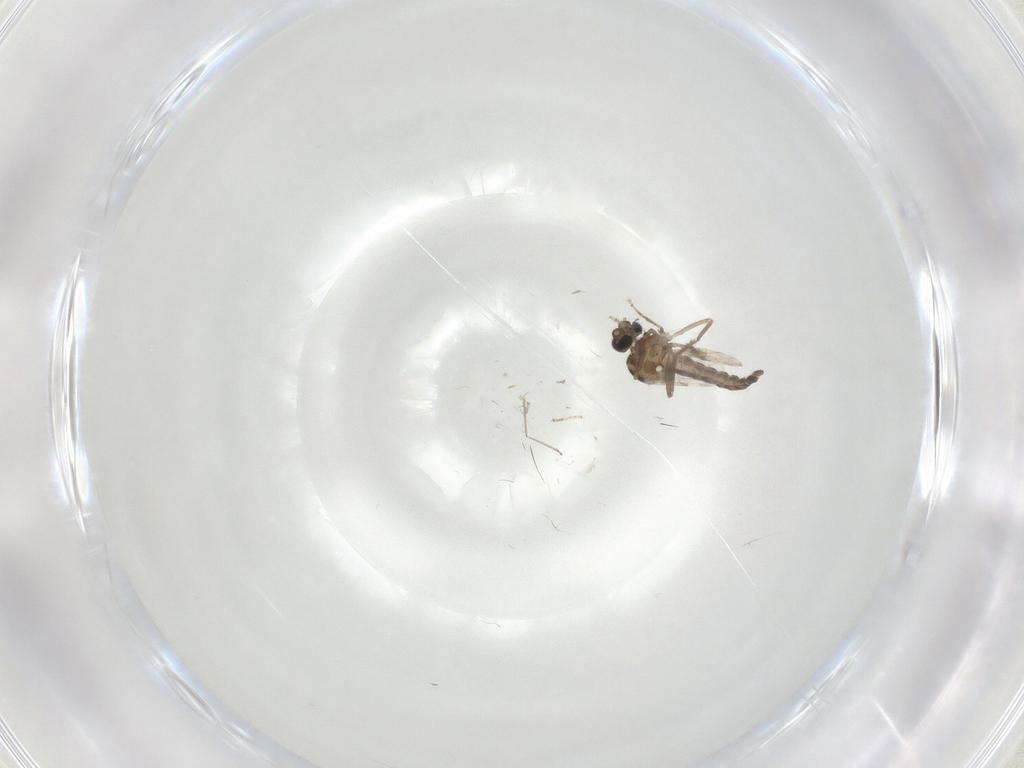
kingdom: Animalia
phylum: Arthropoda
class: Insecta
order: Diptera
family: Ceratopogonidae
